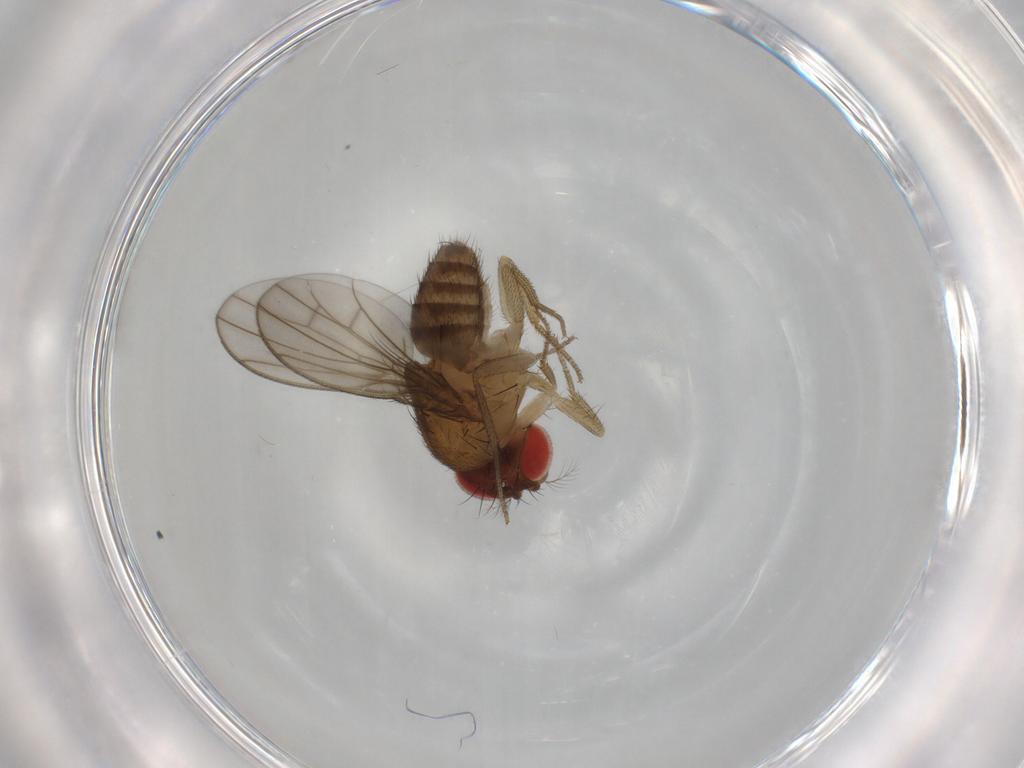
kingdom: Animalia
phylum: Arthropoda
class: Insecta
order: Diptera
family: Drosophilidae
